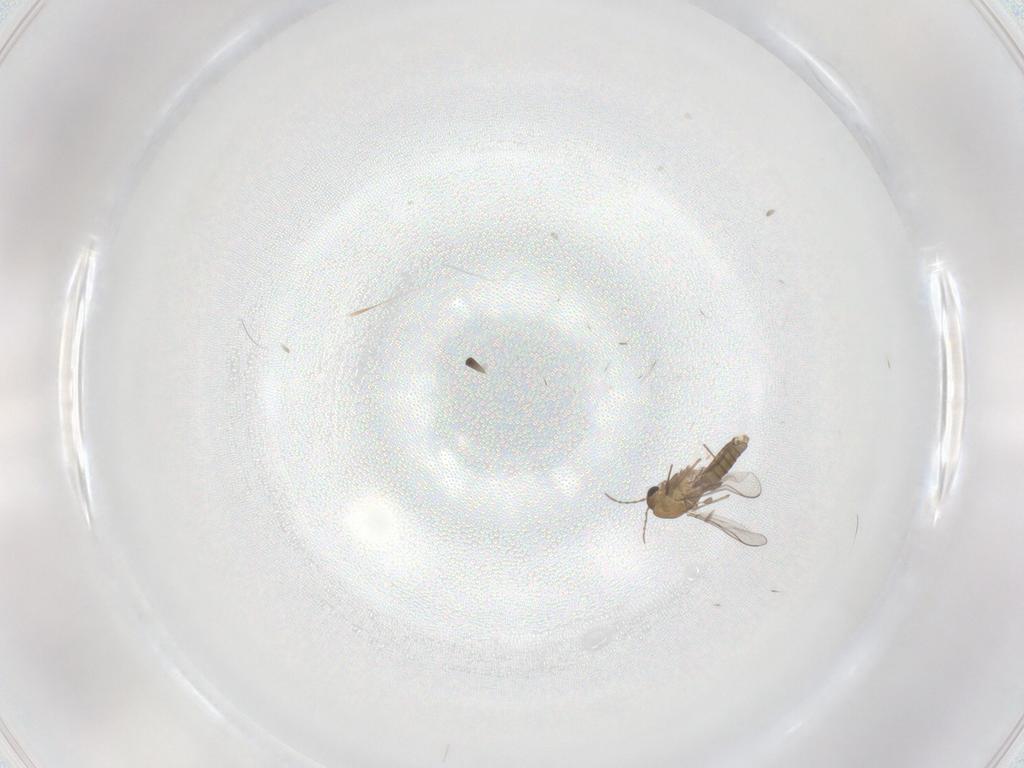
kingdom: Animalia
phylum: Arthropoda
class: Insecta
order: Diptera
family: Chironomidae
